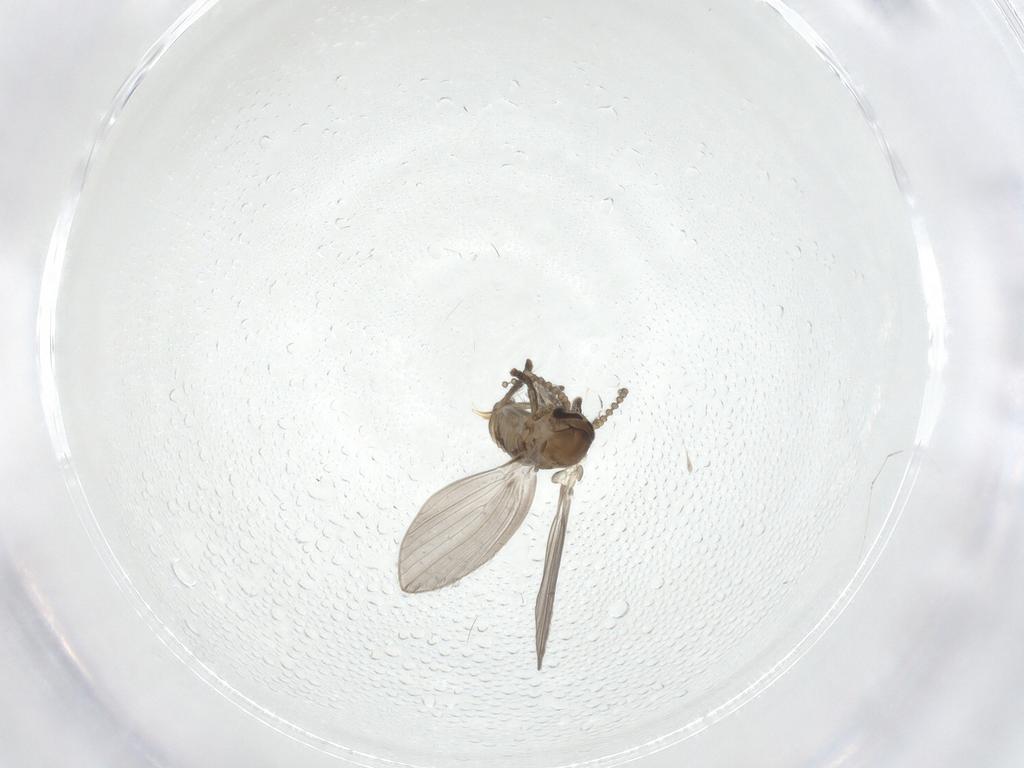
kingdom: Animalia
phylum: Arthropoda
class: Insecta
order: Diptera
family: Psychodidae
